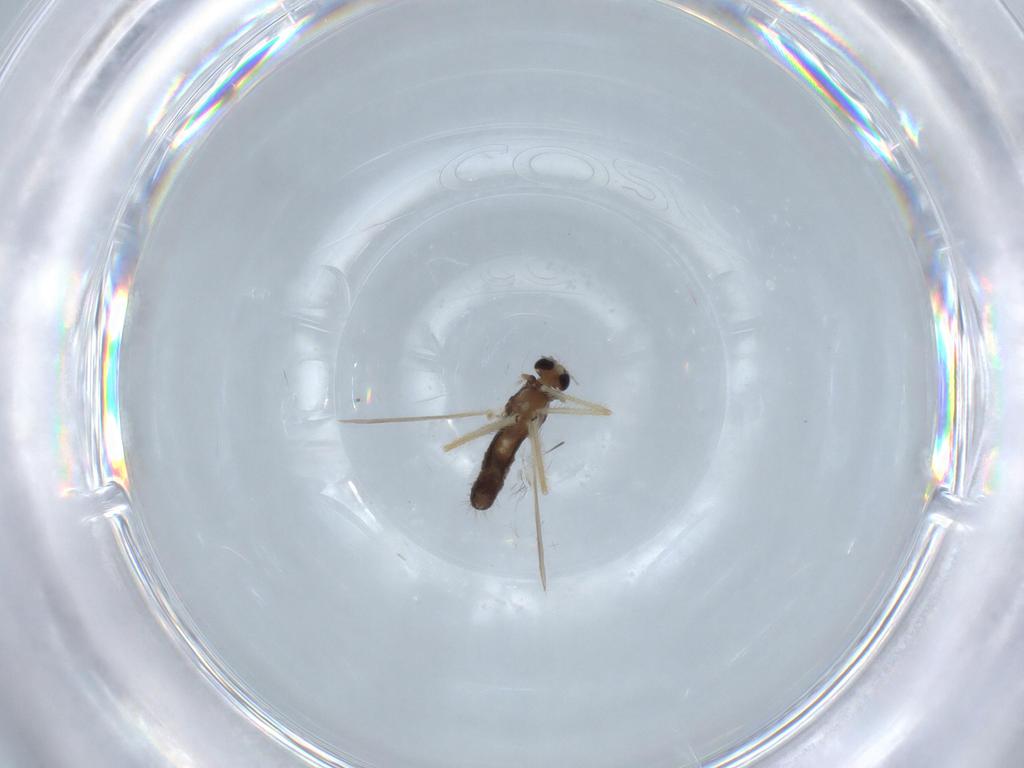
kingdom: Animalia
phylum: Arthropoda
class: Insecta
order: Diptera
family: Chironomidae
